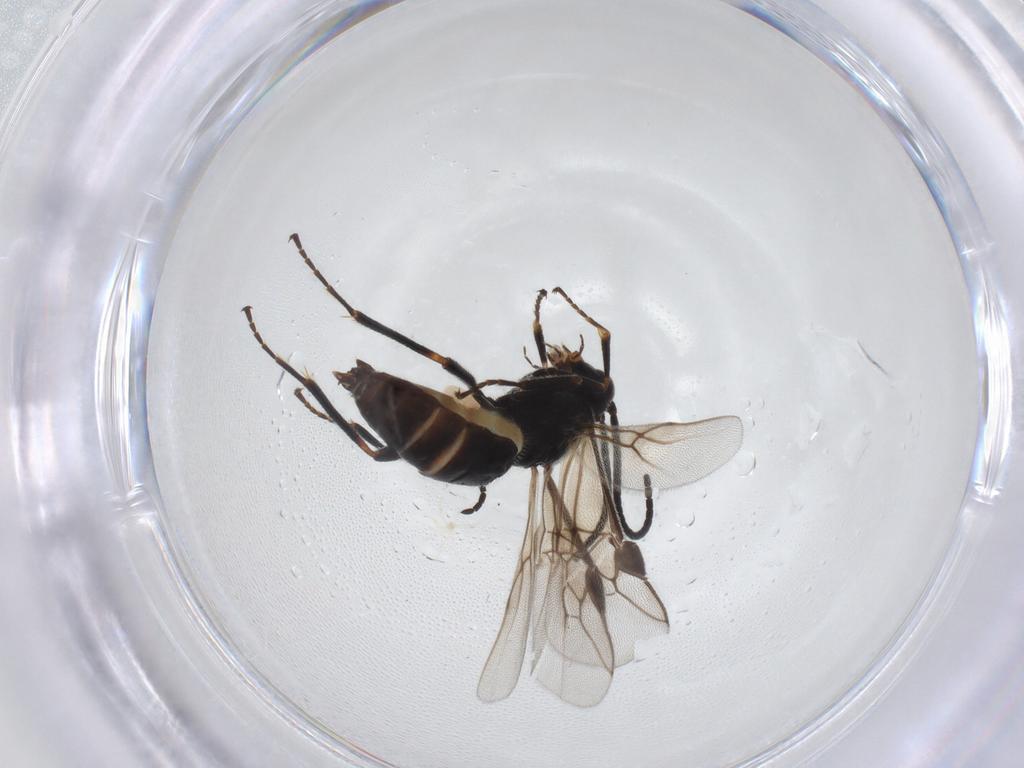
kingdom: Animalia
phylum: Arthropoda
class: Insecta
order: Hymenoptera
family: Braconidae
